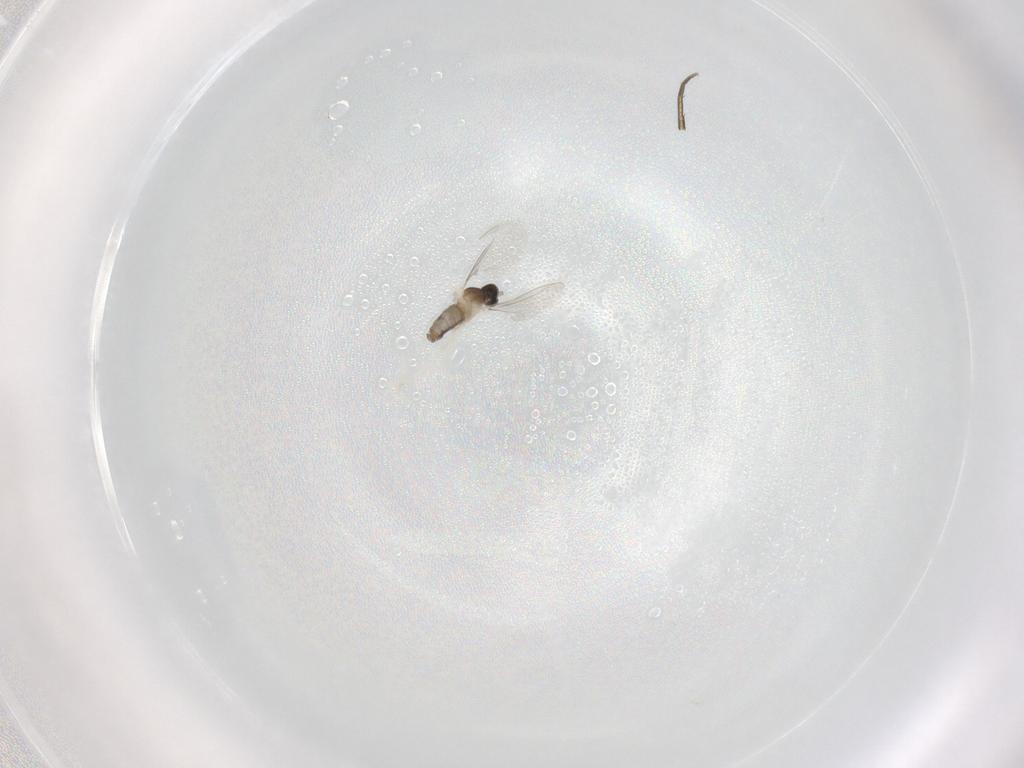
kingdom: Animalia
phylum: Arthropoda
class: Insecta
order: Diptera
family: Cecidomyiidae
